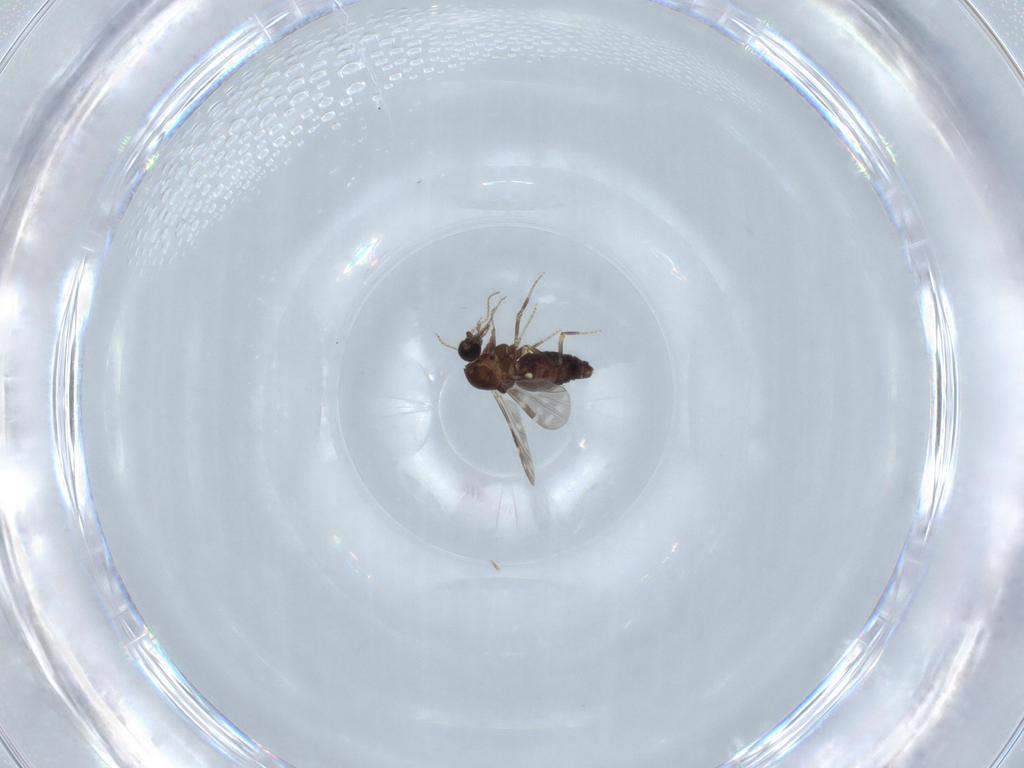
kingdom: Animalia
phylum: Arthropoda
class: Insecta
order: Diptera
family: Ceratopogonidae
